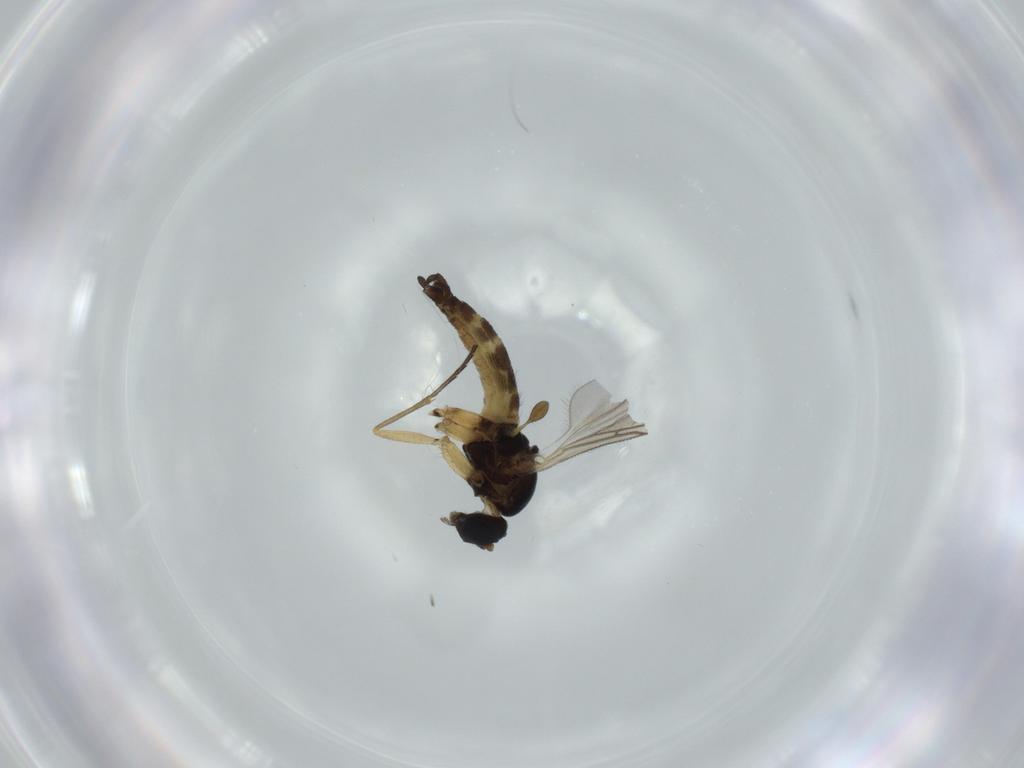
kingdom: Animalia
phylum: Arthropoda
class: Insecta
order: Diptera
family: Sciaridae
